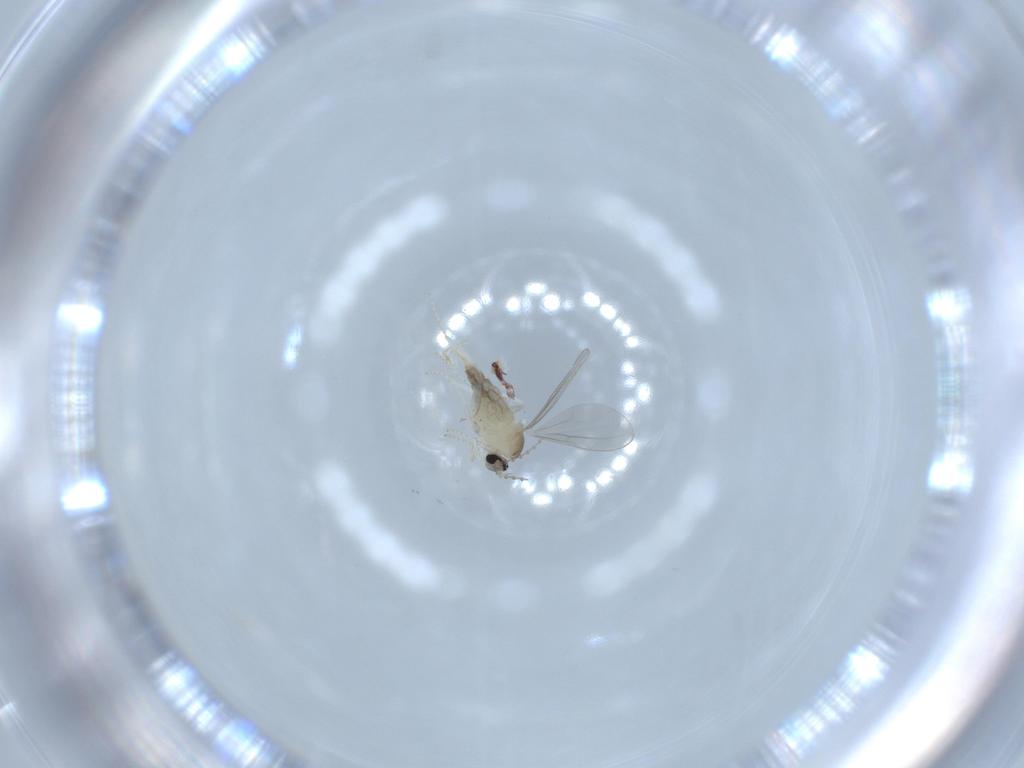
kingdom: Animalia
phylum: Arthropoda
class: Insecta
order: Diptera
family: Cecidomyiidae
